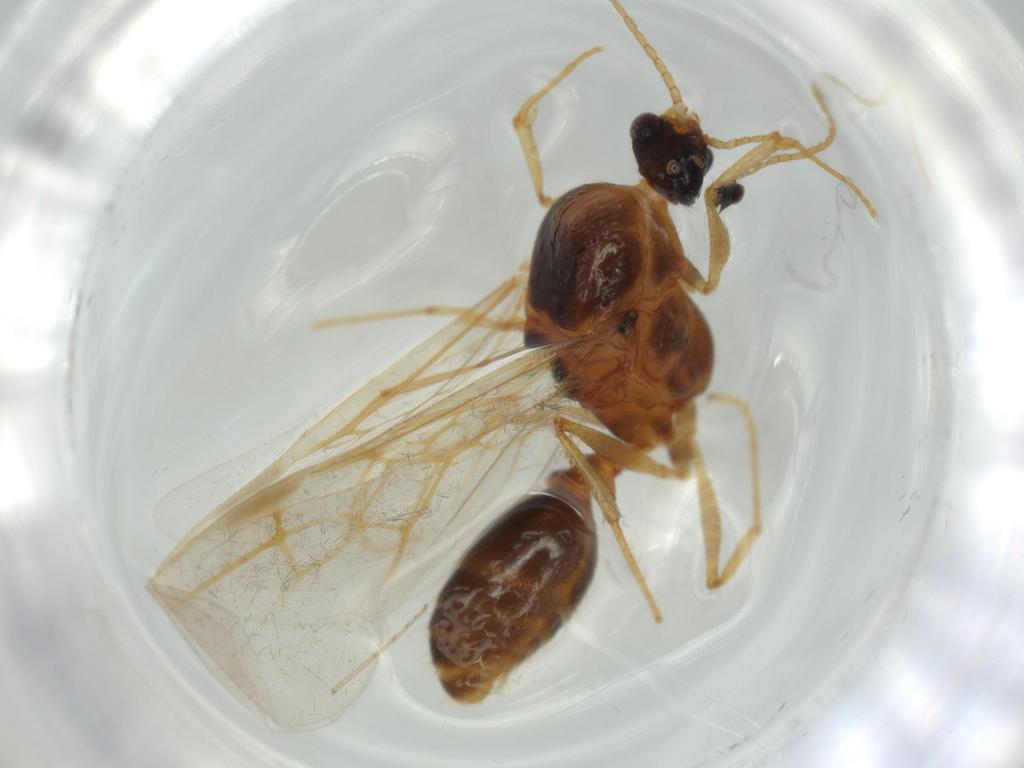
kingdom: Animalia
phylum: Arthropoda
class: Insecta
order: Hymenoptera
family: Formicidae
